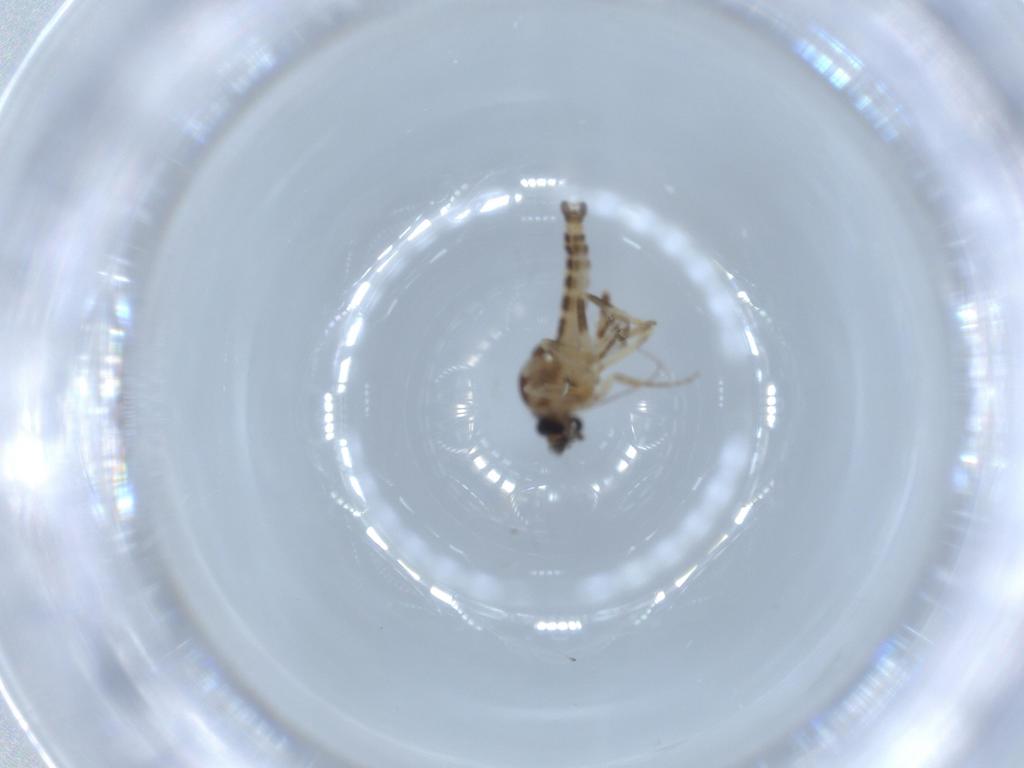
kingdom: Animalia
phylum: Arthropoda
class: Insecta
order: Diptera
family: Ceratopogonidae
